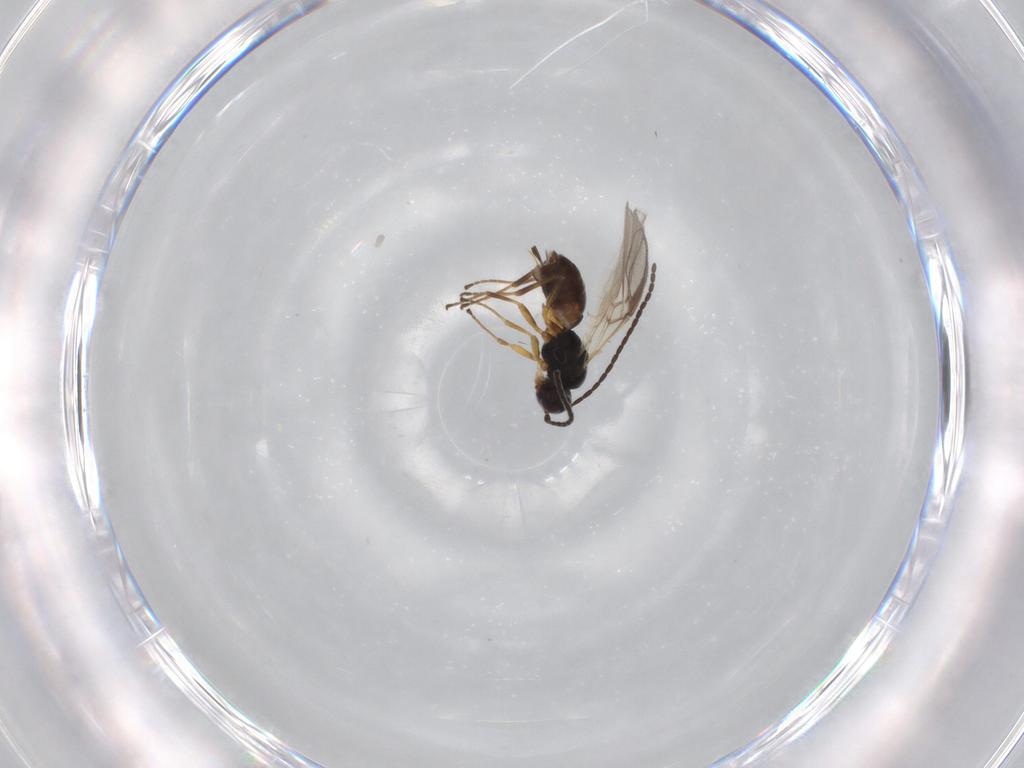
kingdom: Animalia
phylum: Arthropoda
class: Insecta
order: Hymenoptera
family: Braconidae
